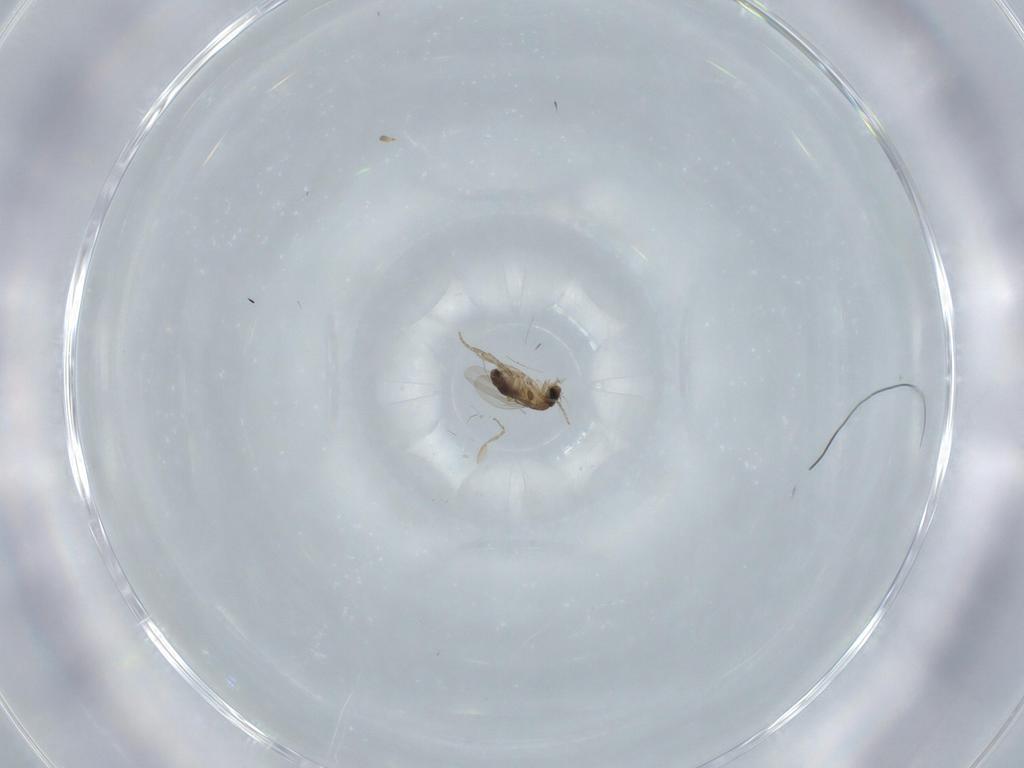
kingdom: Animalia
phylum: Arthropoda
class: Insecta
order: Diptera
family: Phoridae
